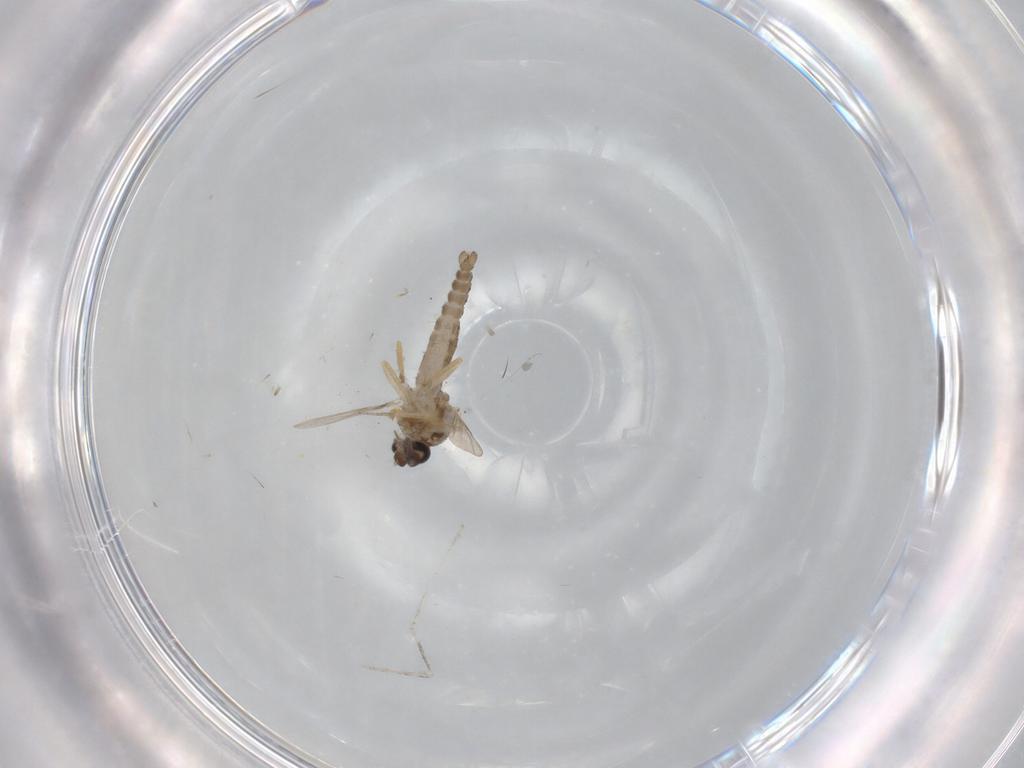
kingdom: Animalia
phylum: Arthropoda
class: Insecta
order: Diptera
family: Ceratopogonidae
